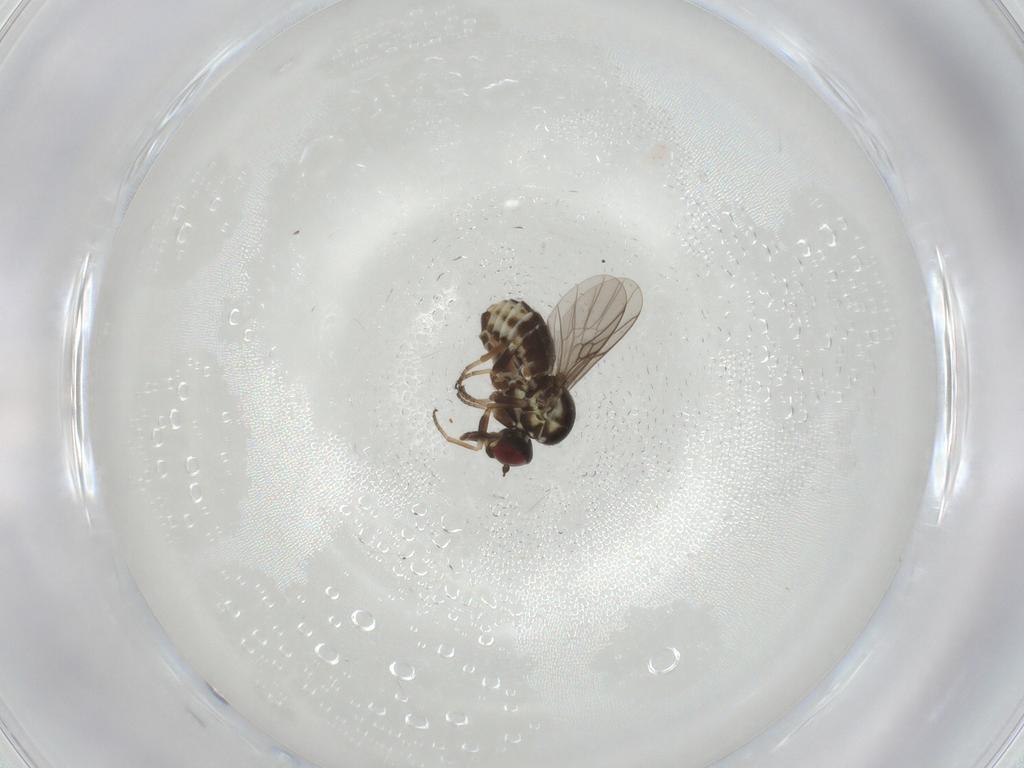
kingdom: Animalia
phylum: Arthropoda
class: Insecta
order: Diptera
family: Bombyliidae
